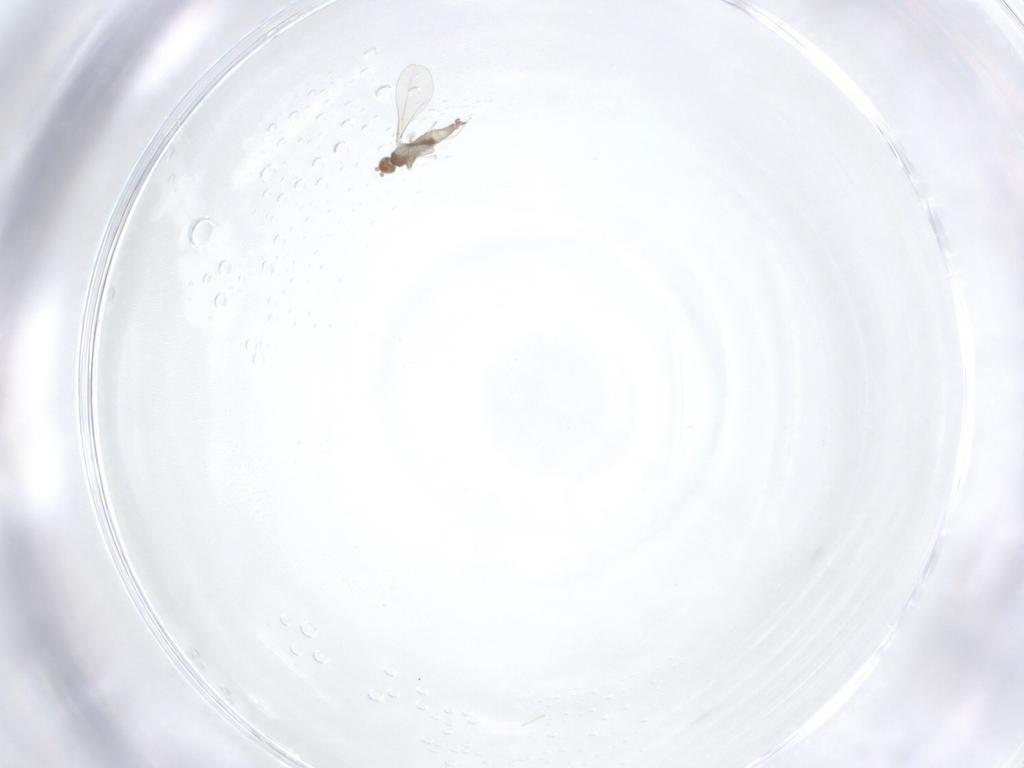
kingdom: Animalia
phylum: Arthropoda
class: Insecta
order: Diptera
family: Cecidomyiidae
